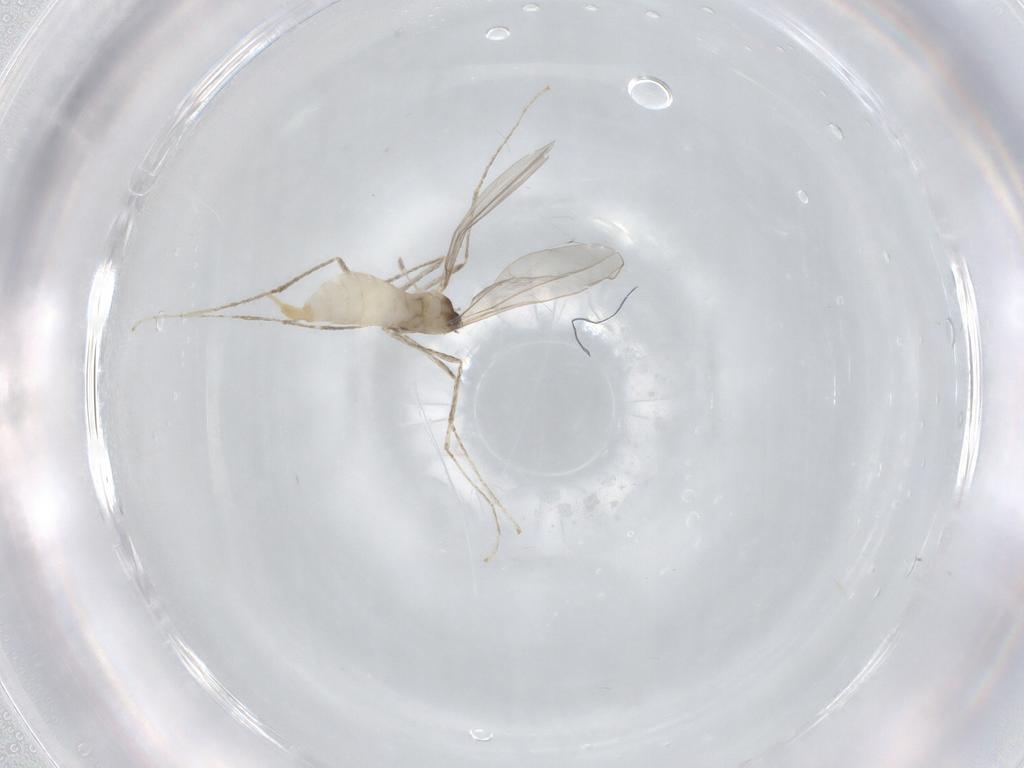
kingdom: Animalia
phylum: Arthropoda
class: Insecta
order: Diptera
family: Cecidomyiidae
